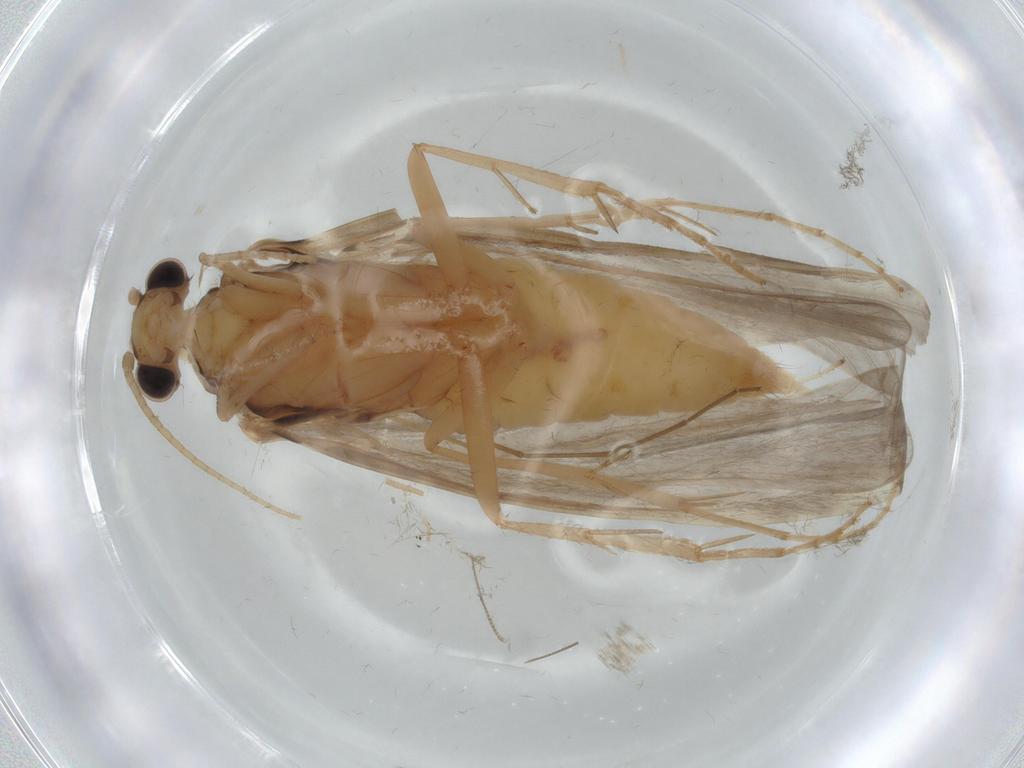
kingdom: Animalia
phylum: Arthropoda
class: Insecta
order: Trichoptera
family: Ecnomidae
